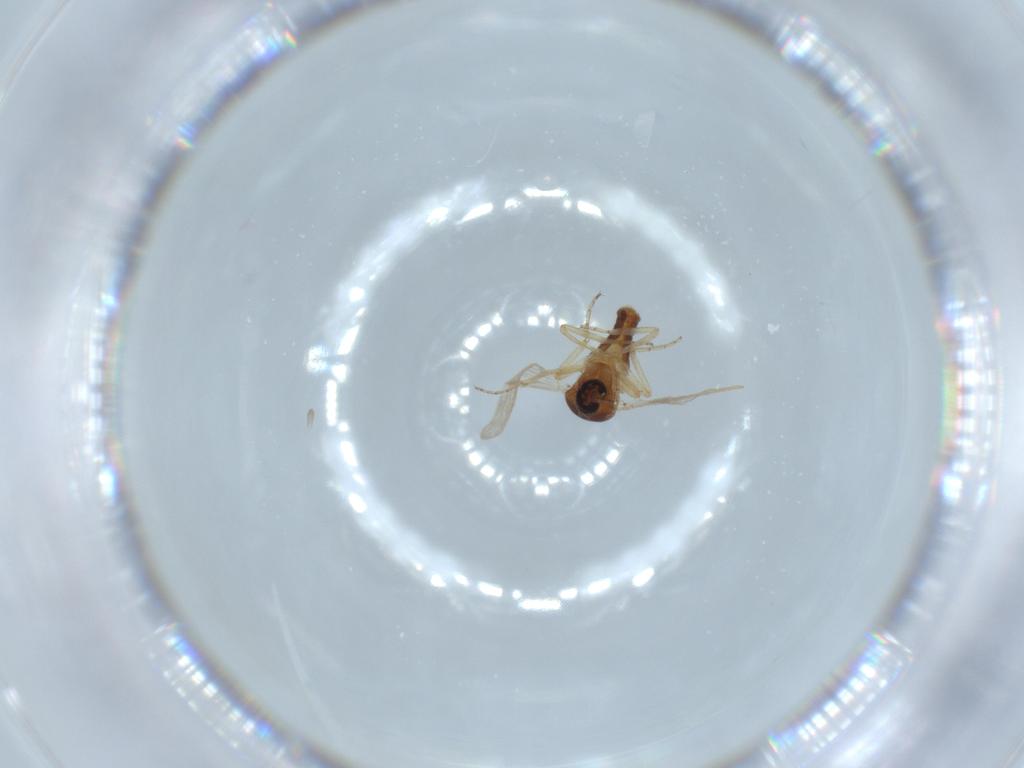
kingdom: Animalia
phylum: Arthropoda
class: Insecta
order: Diptera
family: Ceratopogonidae
